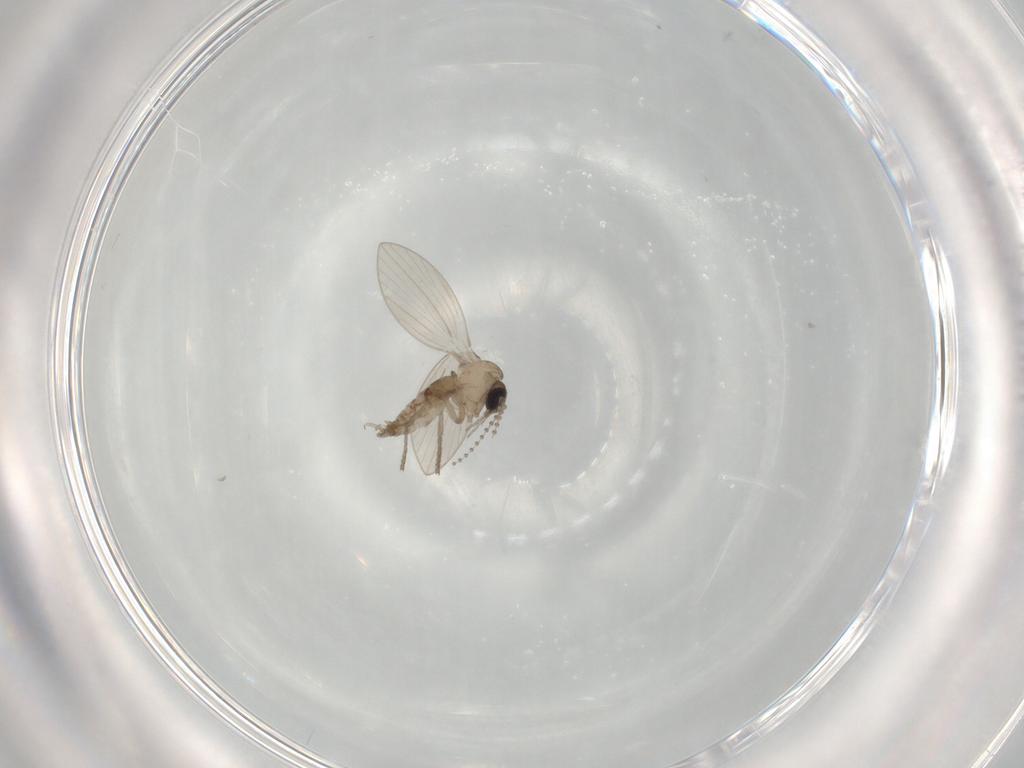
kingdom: Animalia
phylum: Arthropoda
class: Insecta
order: Diptera
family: Psychodidae
